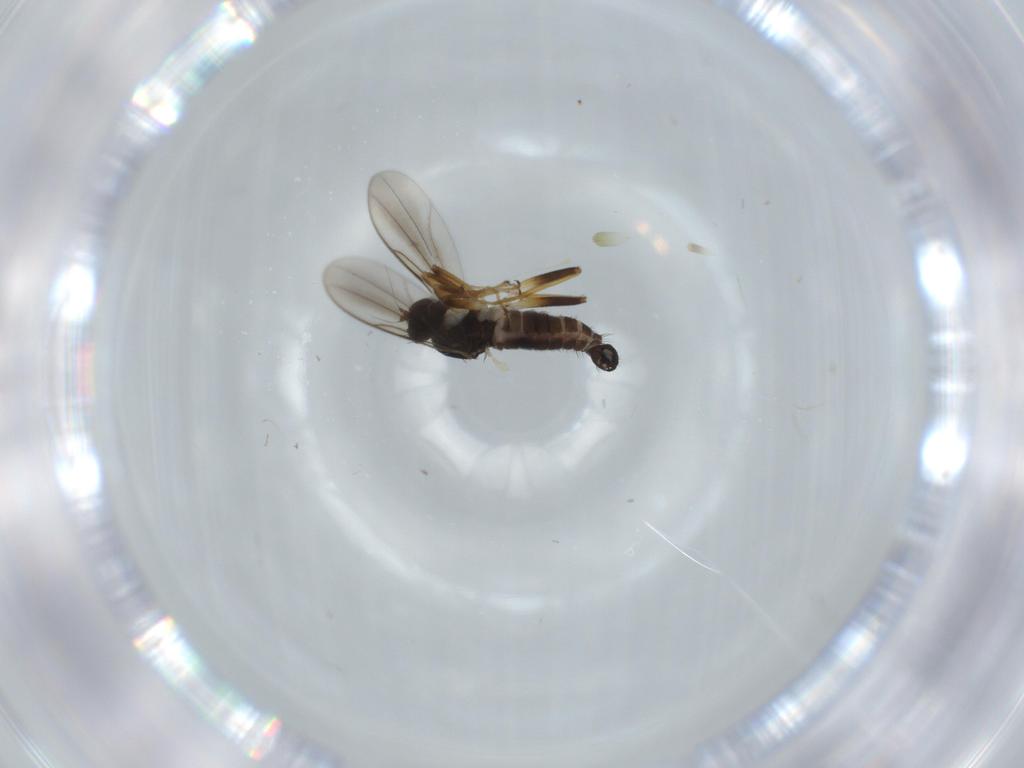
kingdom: Animalia
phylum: Arthropoda
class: Insecta
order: Diptera
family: Hybotidae
